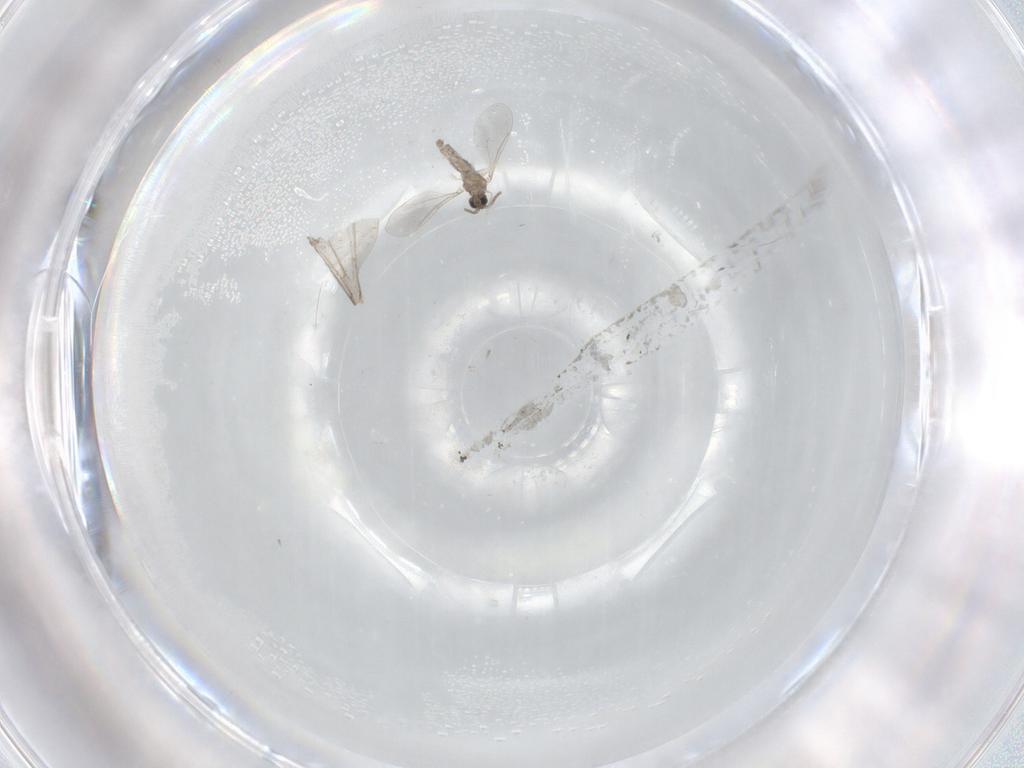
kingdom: Animalia
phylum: Arthropoda
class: Insecta
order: Diptera
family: Cecidomyiidae
